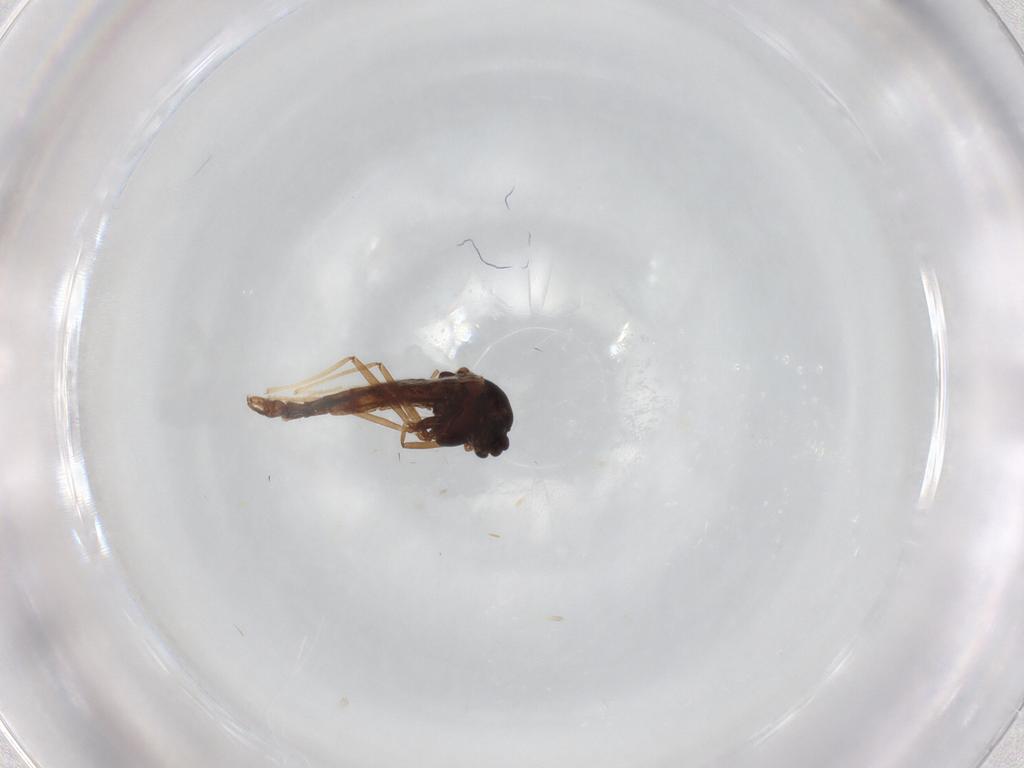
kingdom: Animalia
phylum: Arthropoda
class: Insecta
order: Diptera
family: Chironomidae
